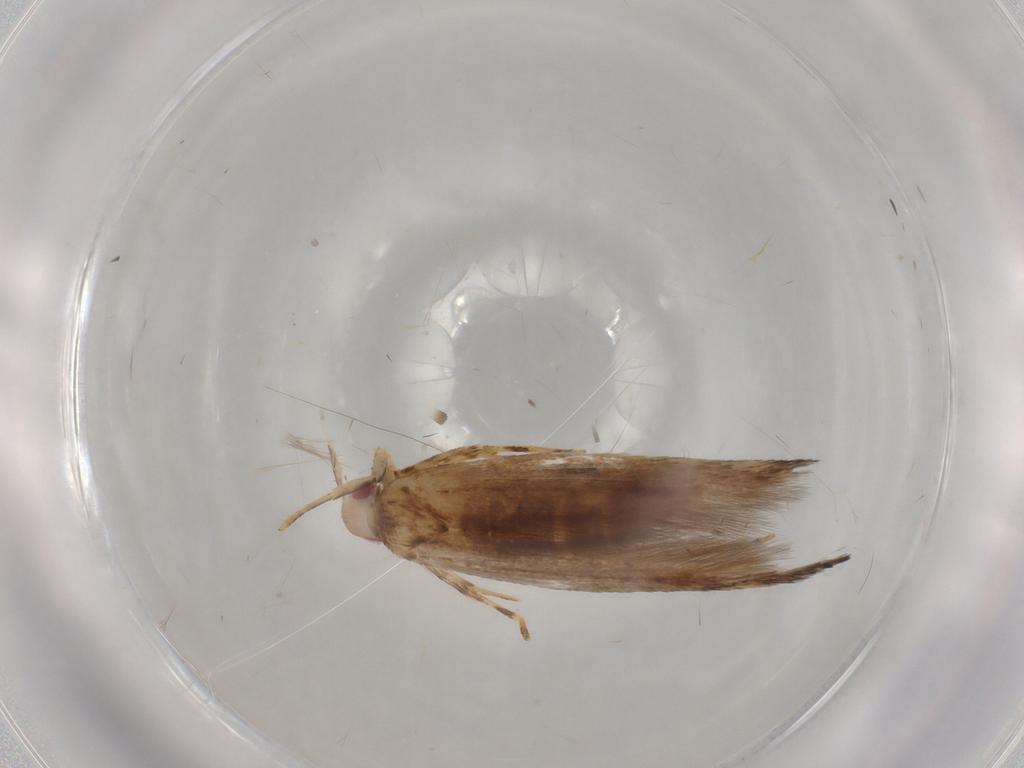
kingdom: Animalia
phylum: Arthropoda
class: Insecta
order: Lepidoptera
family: Cosmopterigidae
